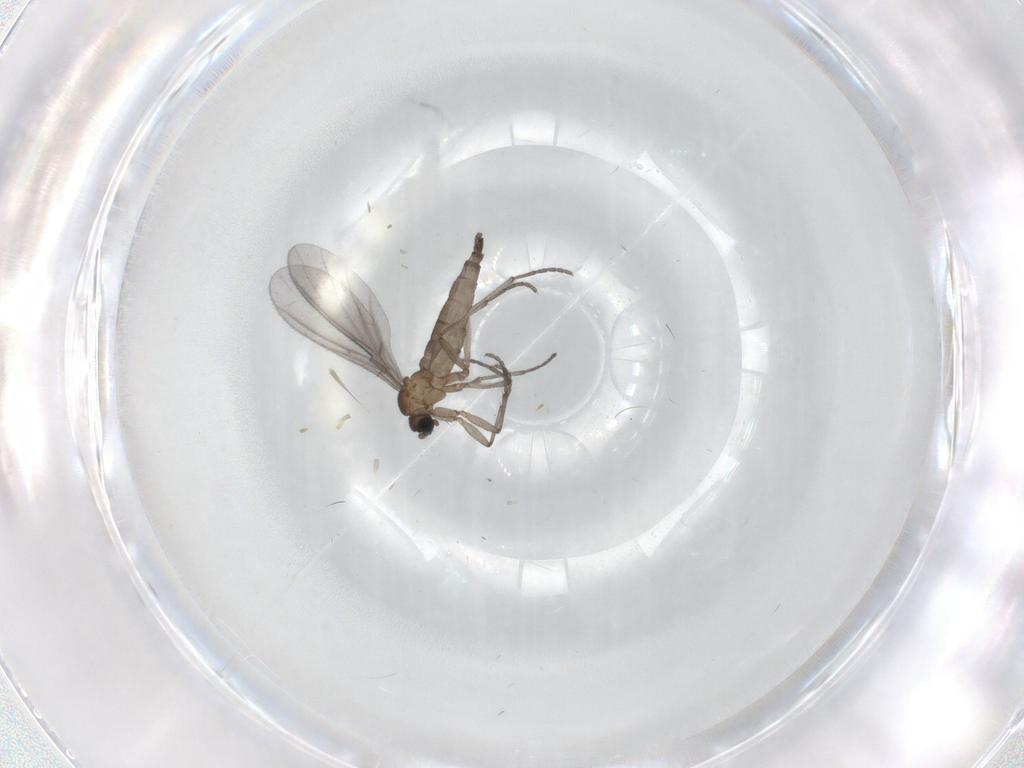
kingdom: Animalia
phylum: Arthropoda
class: Insecta
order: Diptera
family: Sciaridae
